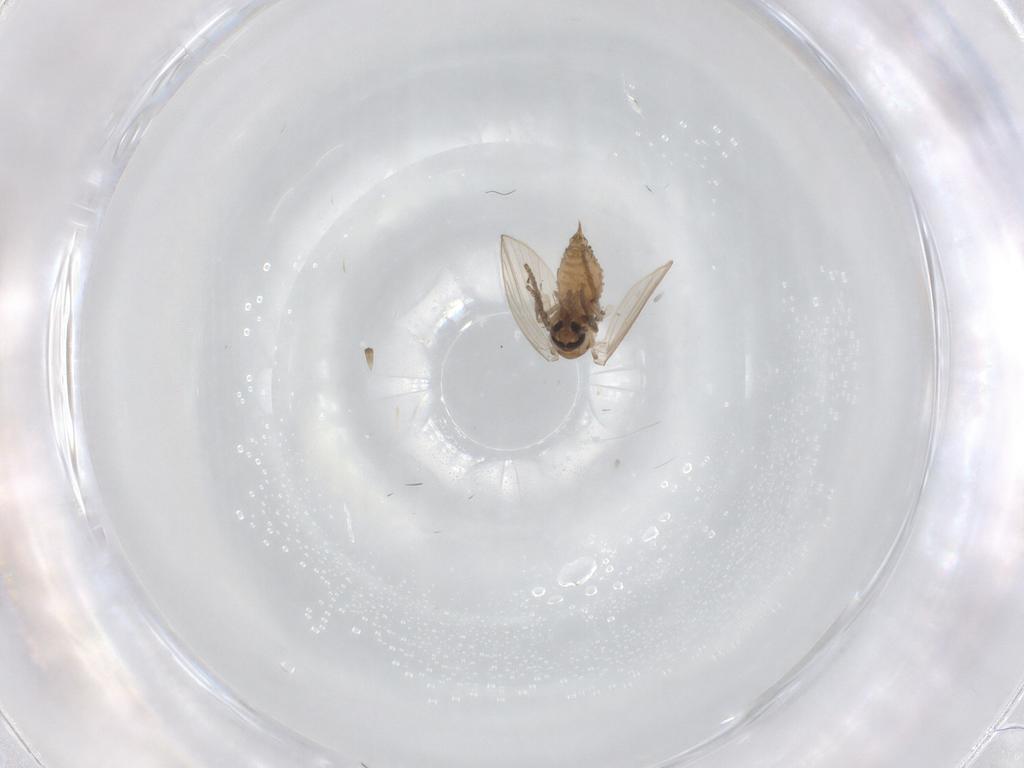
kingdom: Animalia
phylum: Arthropoda
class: Insecta
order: Diptera
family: Psychodidae
